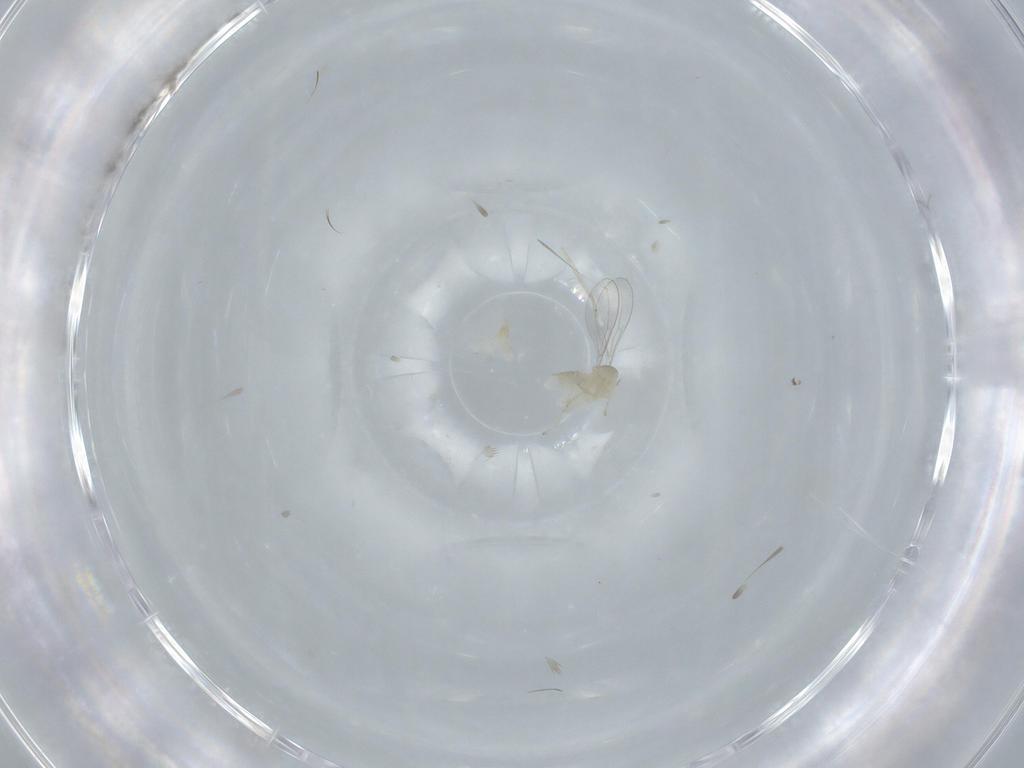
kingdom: Animalia
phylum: Arthropoda
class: Insecta
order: Diptera
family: Cecidomyiidae
